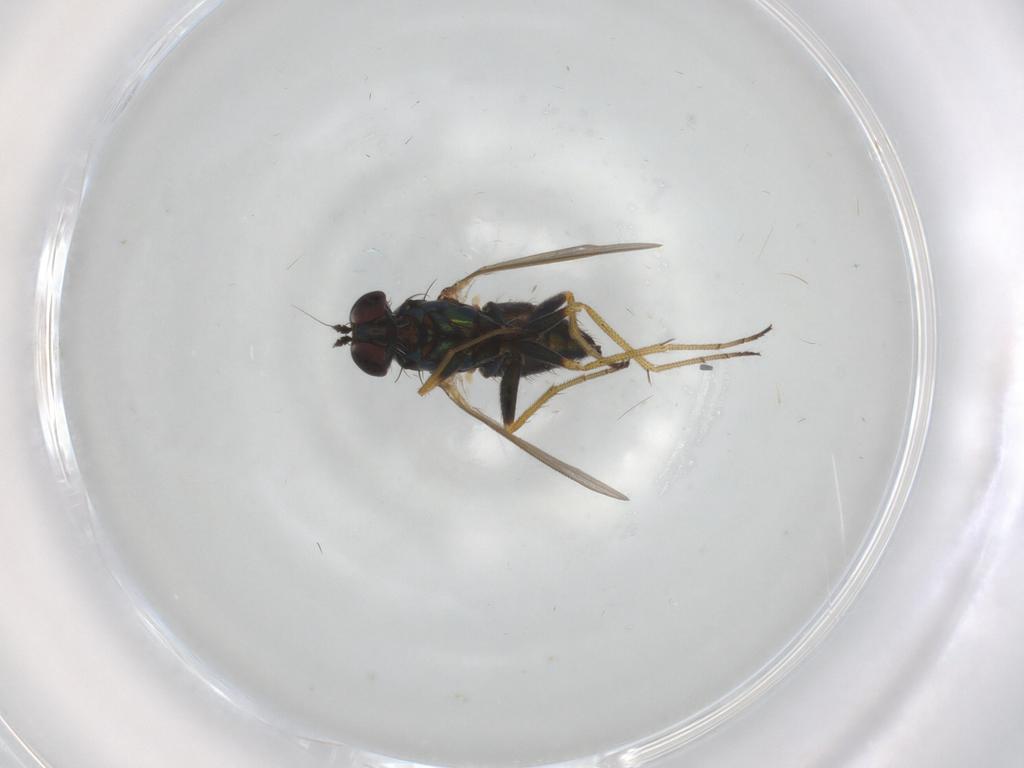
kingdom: Animalia
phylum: Arthropoda
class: Insecta
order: Diptera
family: Dolichopodidae
